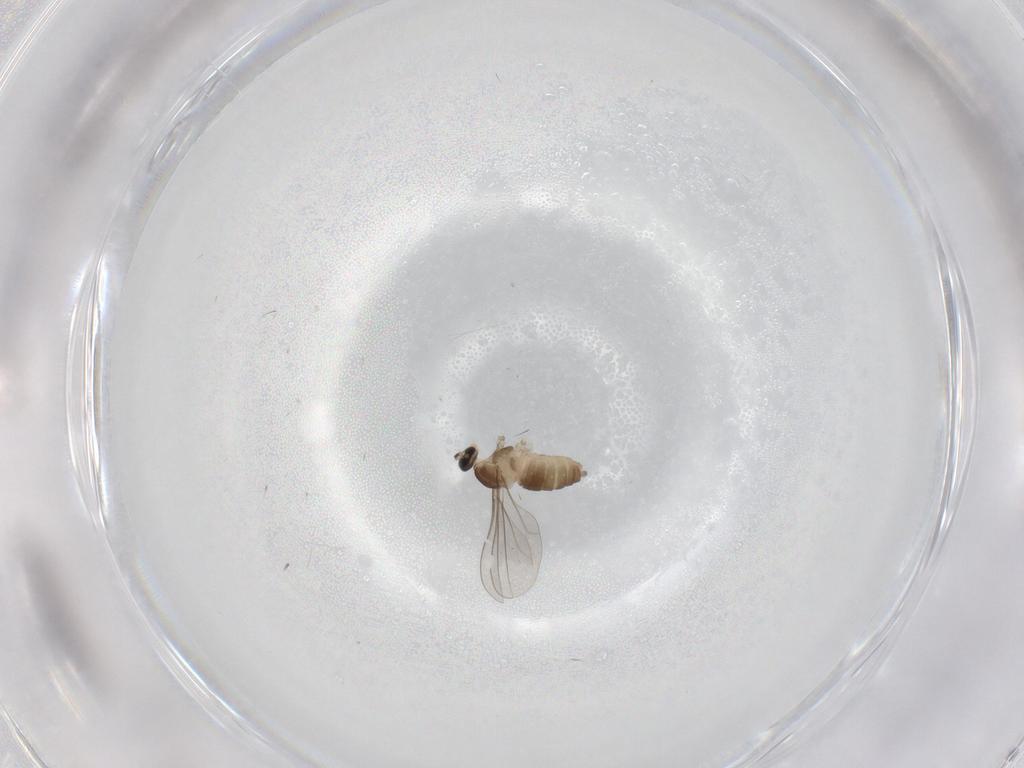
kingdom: Animalia
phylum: Arthropoda
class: Insecta
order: Diptera
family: Cecidomyiidae
